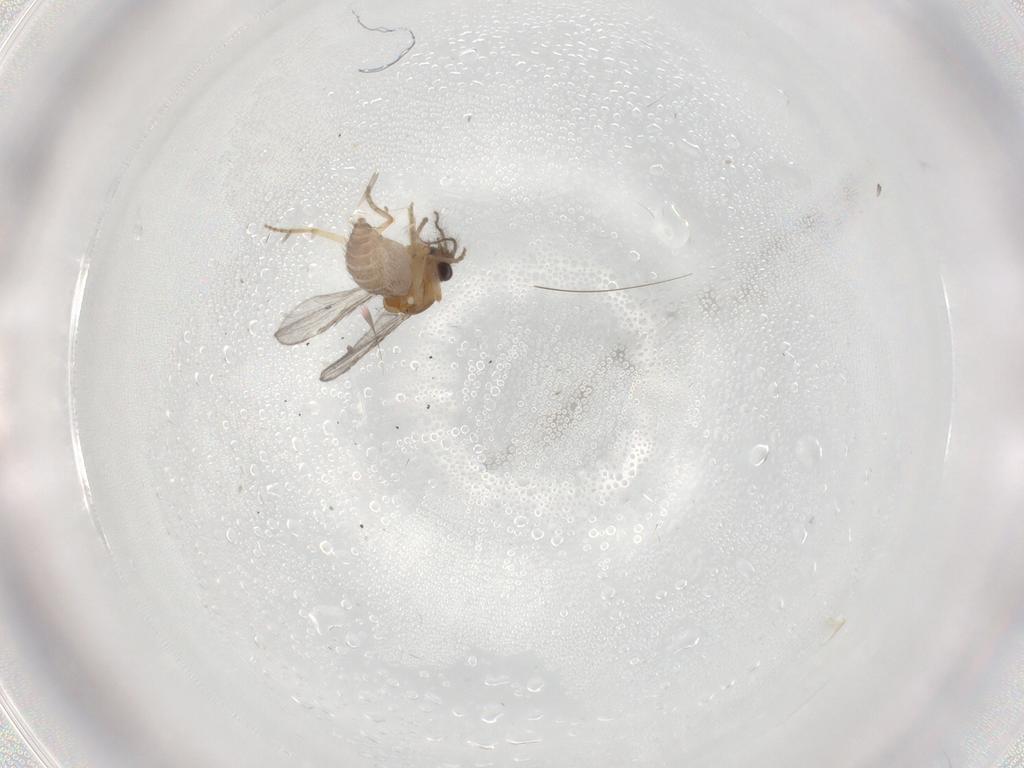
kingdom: Animalia
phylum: Arthropoda
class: Insecta
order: Diptera
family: Ceratopogonidae
